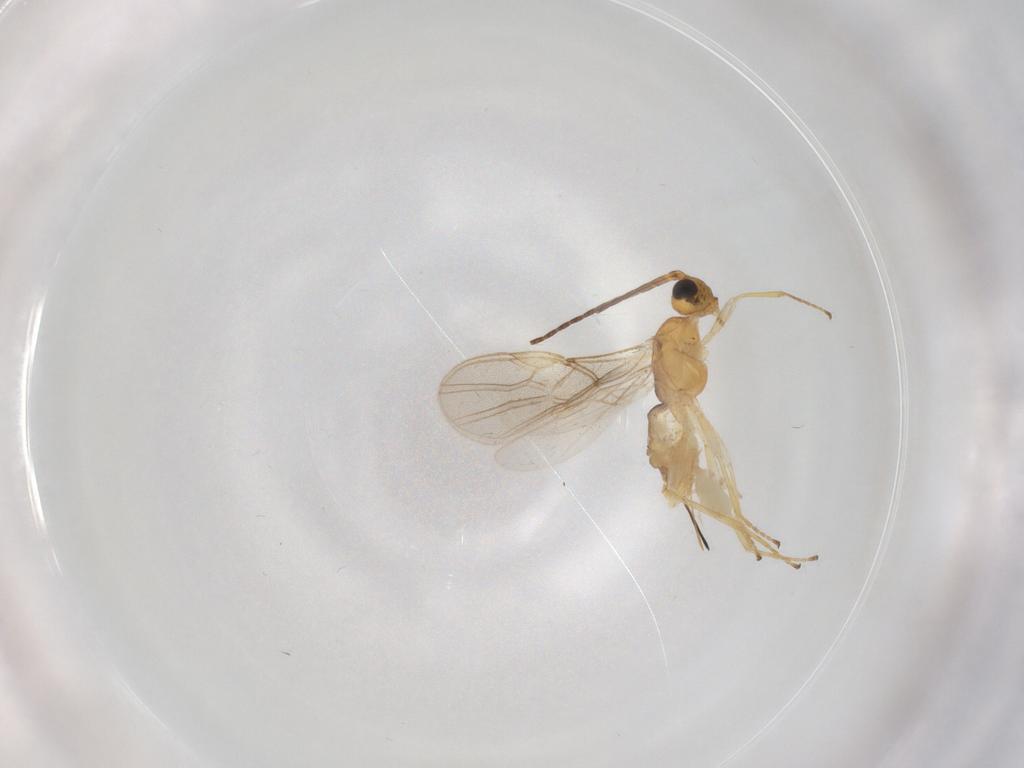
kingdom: Animalia
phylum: Arthropoda
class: Insecta
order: Hymenoptera
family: Braconidae
